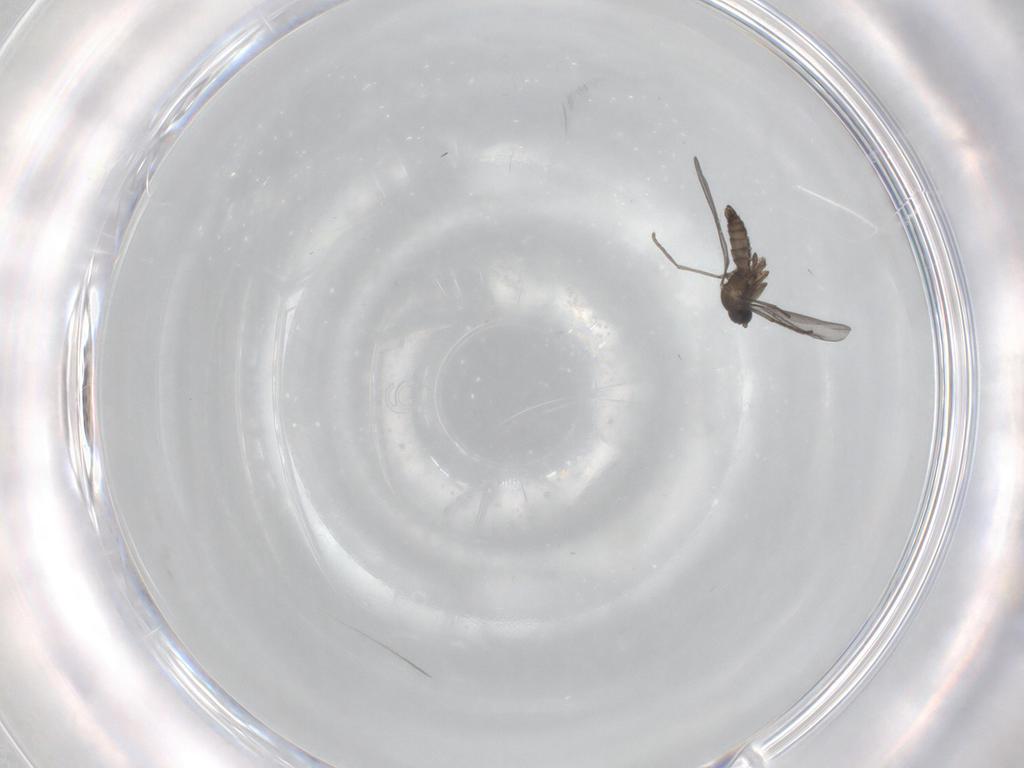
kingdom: Animalia
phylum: Arthropoda
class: Insecta
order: Diptera
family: Sciaridae
